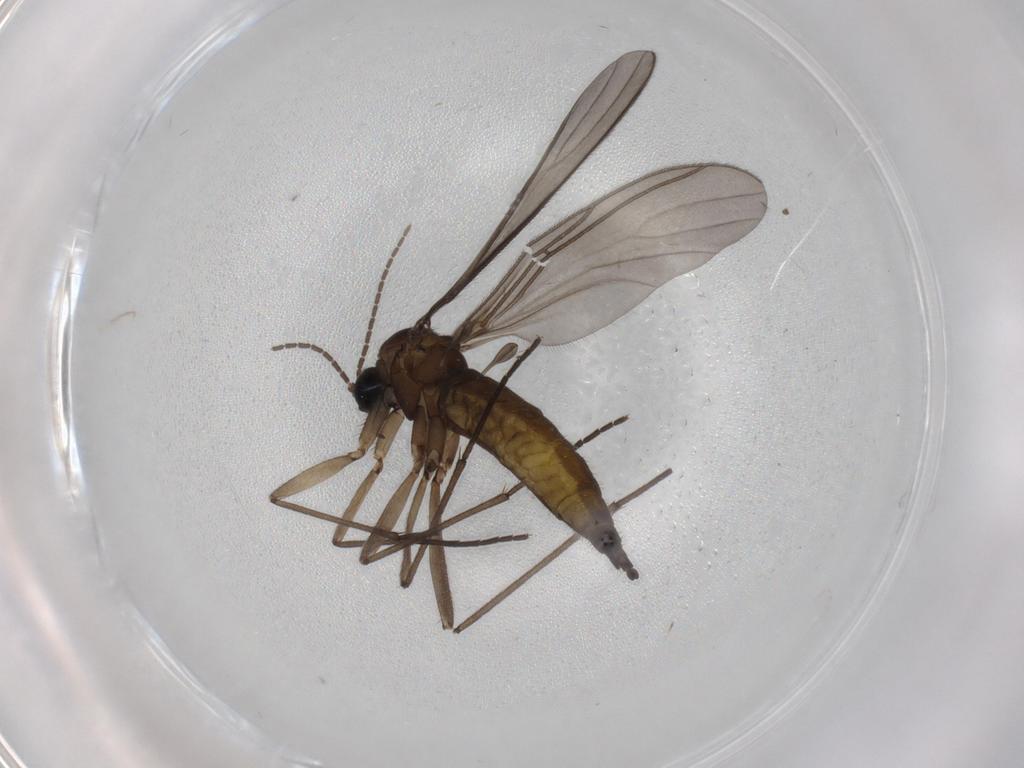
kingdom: Animalia
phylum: Arthropoda
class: Insecta
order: Diptera
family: Sciaridae
